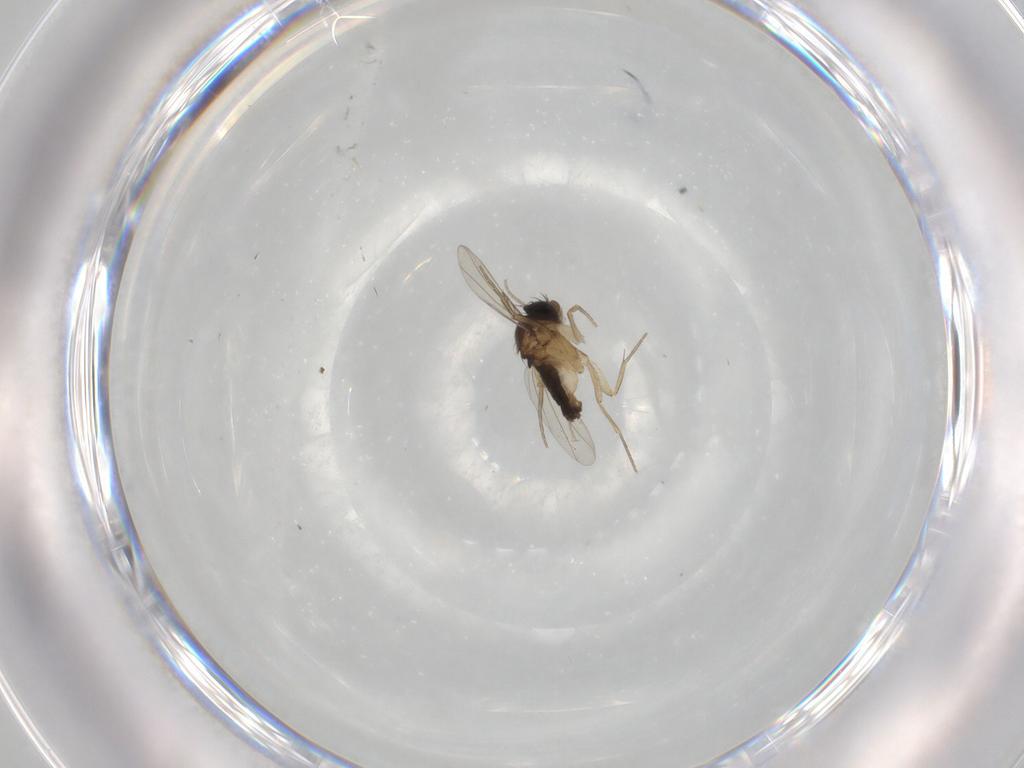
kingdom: Animalia
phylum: Arthropoda
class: Insecta
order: Diptera
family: Phoridae
